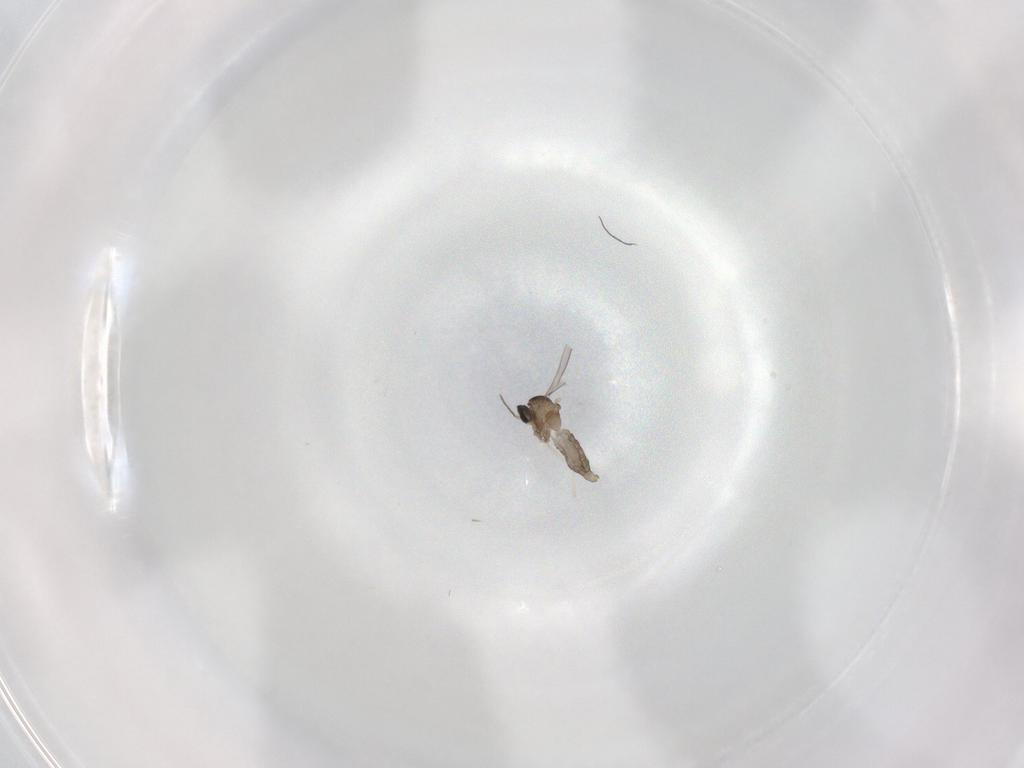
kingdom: Animalia
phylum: Arthropoda
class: Insecta
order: Diptera
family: Cecidomyiidae
